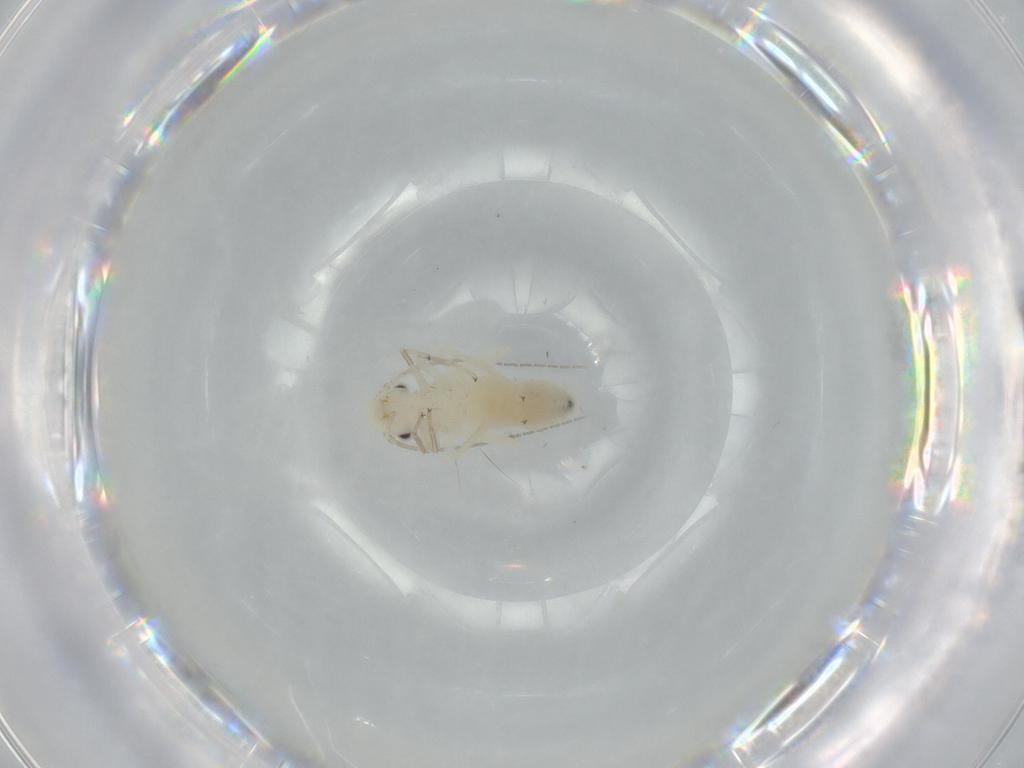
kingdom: Animalia
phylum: Arthropoda
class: Insecta
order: Psocodea
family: Caeciliusidae
